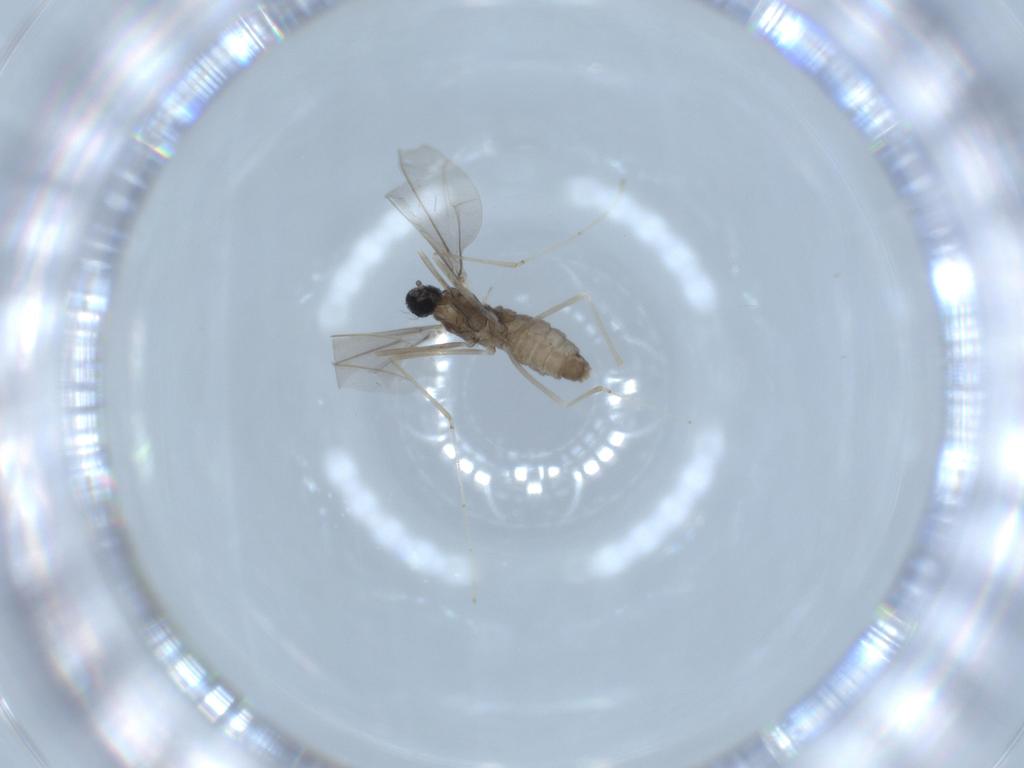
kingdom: Animalia
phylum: Arthropoda
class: Insecta
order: Diptera
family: Cecidomyiidae
